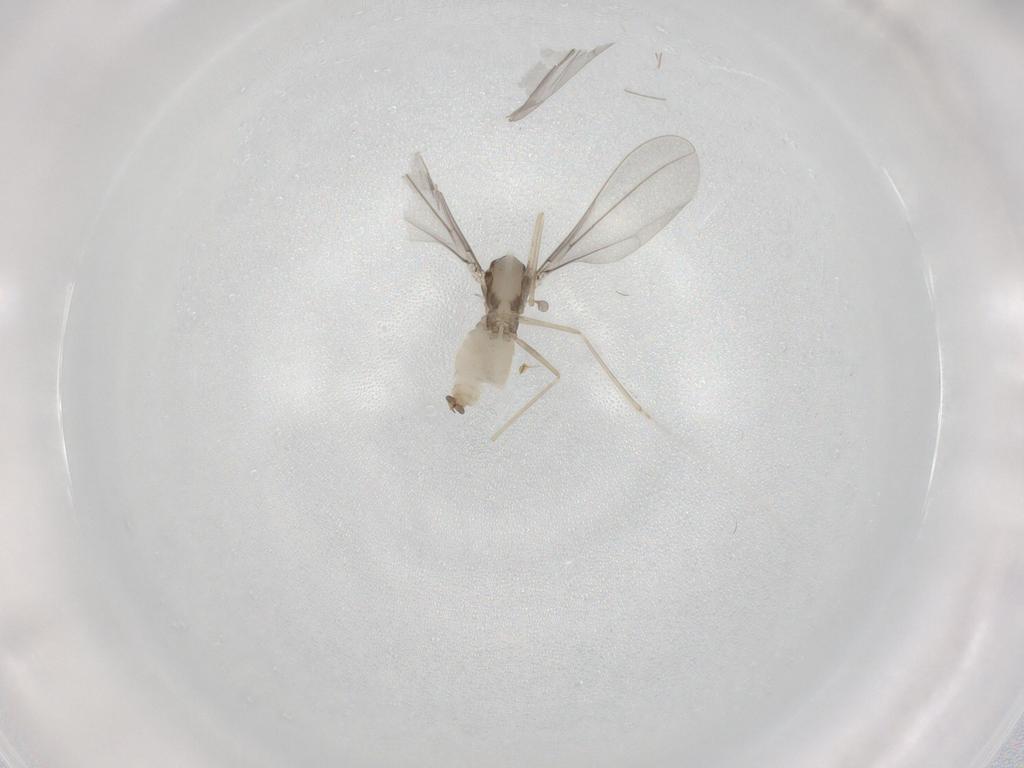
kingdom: Animalia
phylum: Arthropoda
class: Insecta
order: Diptera
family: Cecidomyiidae
